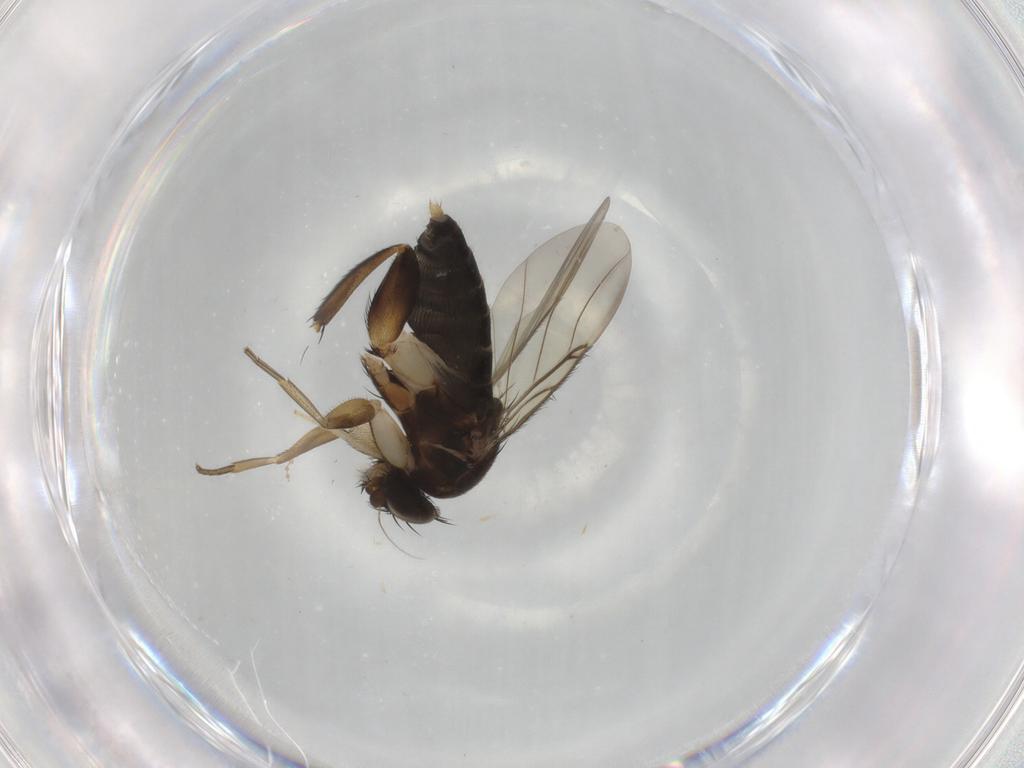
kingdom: Animalia
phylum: Arthropoda
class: Insecta
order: Diptera
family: Phoridae
